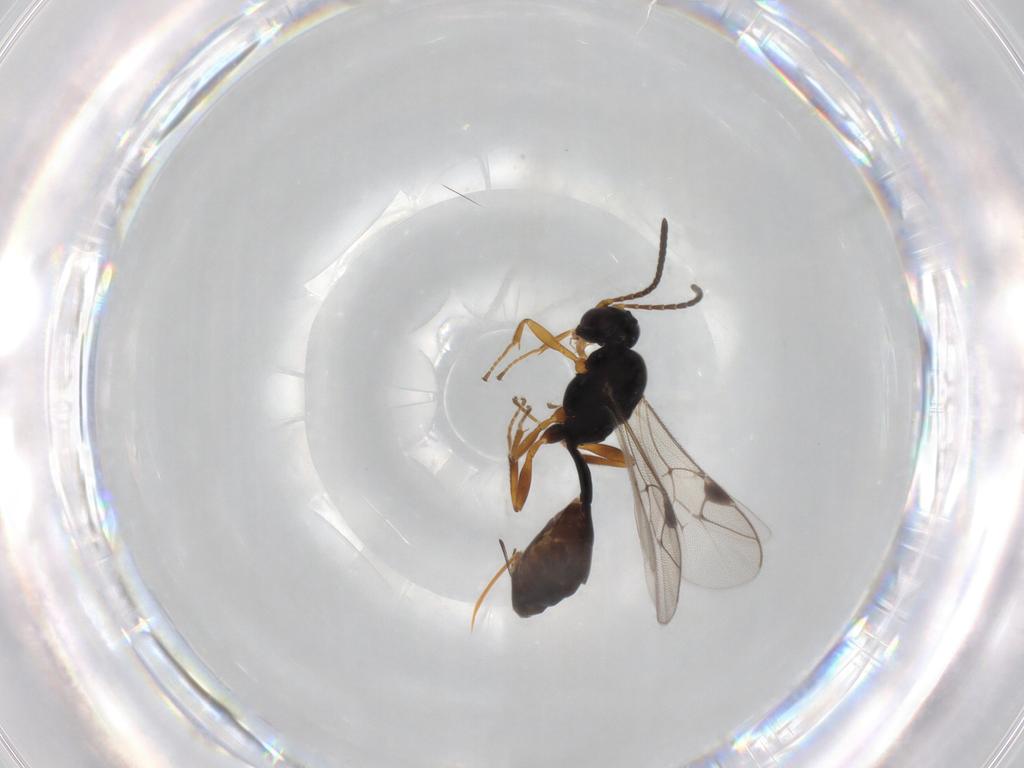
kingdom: Animalia
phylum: Arthropoda
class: Insecta
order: Hymenoptera
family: Ichneumonidae
